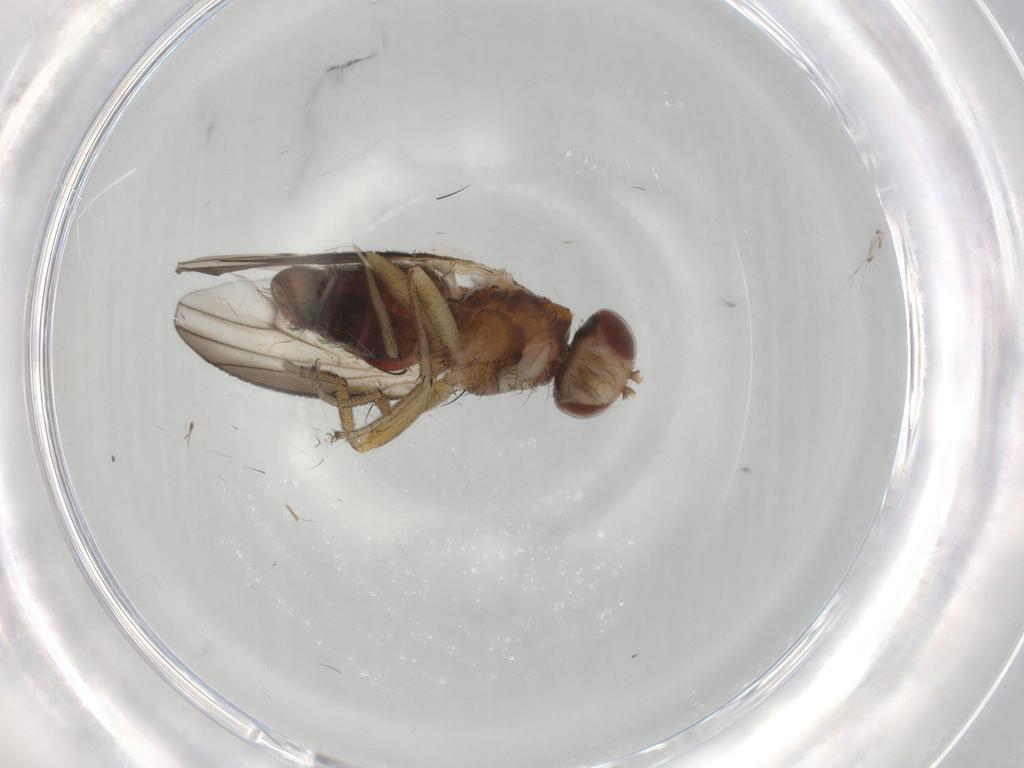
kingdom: Animalia
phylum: Arthropoda
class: Insecta
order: Diptera
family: Heleomyzidae
